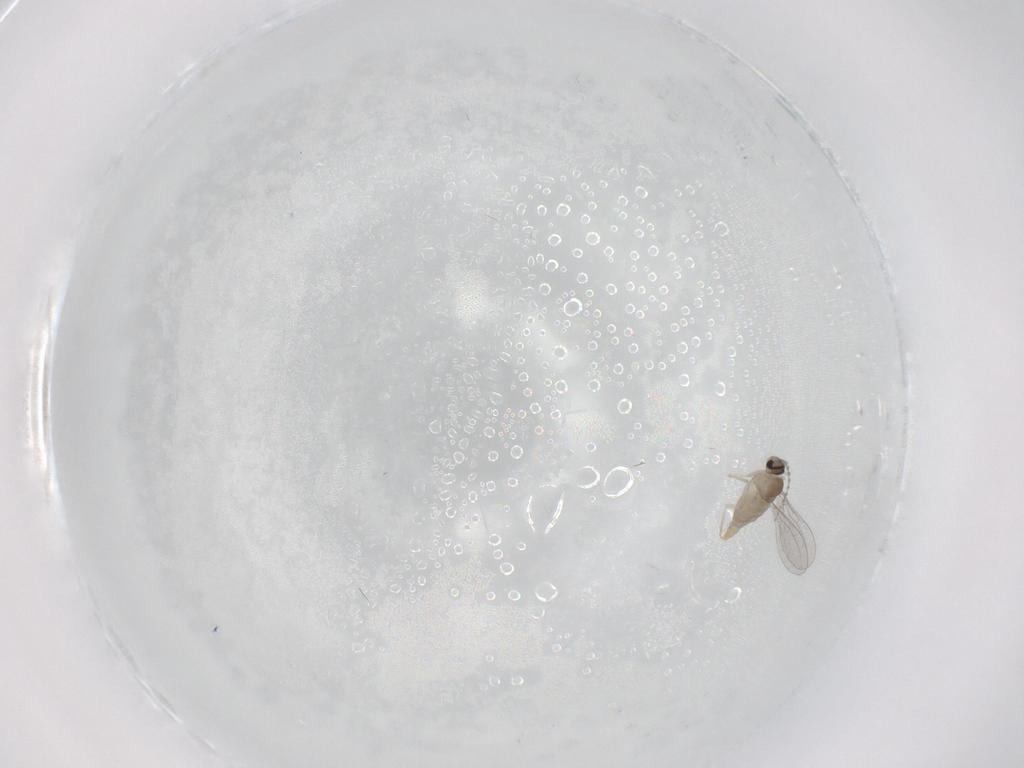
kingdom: Animalia
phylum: Arthropoda
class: Insecta
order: Diptera
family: Cecidomyiidae
